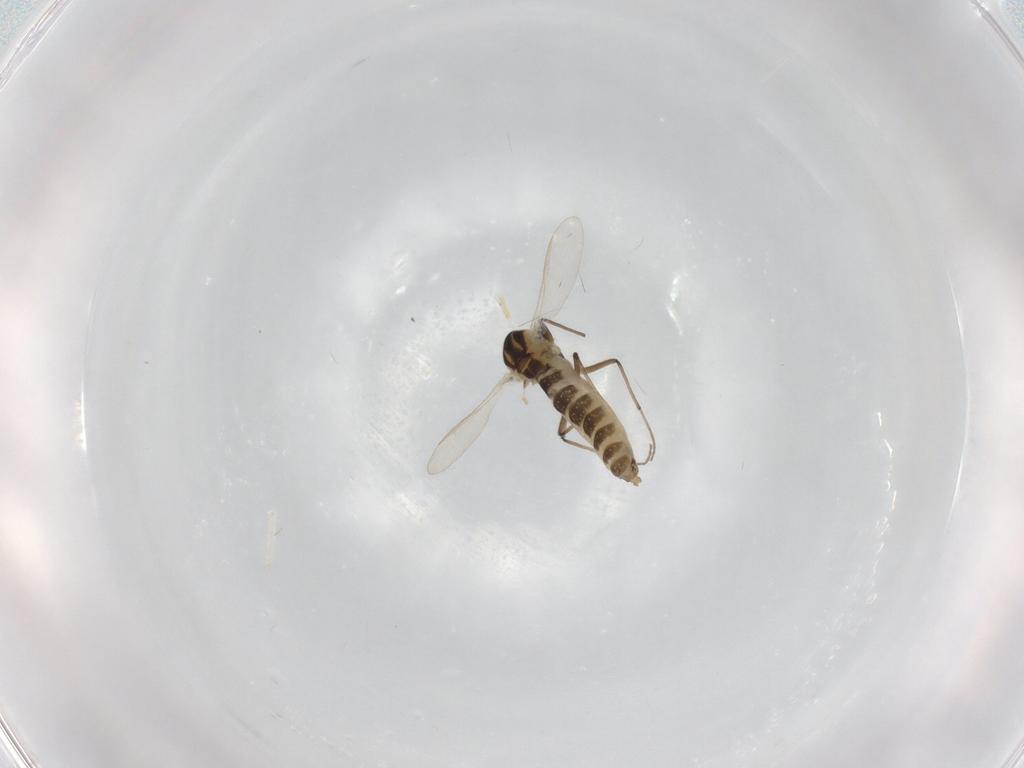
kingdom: Animalia
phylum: Arthropoda
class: Insecta
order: Diptera
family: Chironomidae
